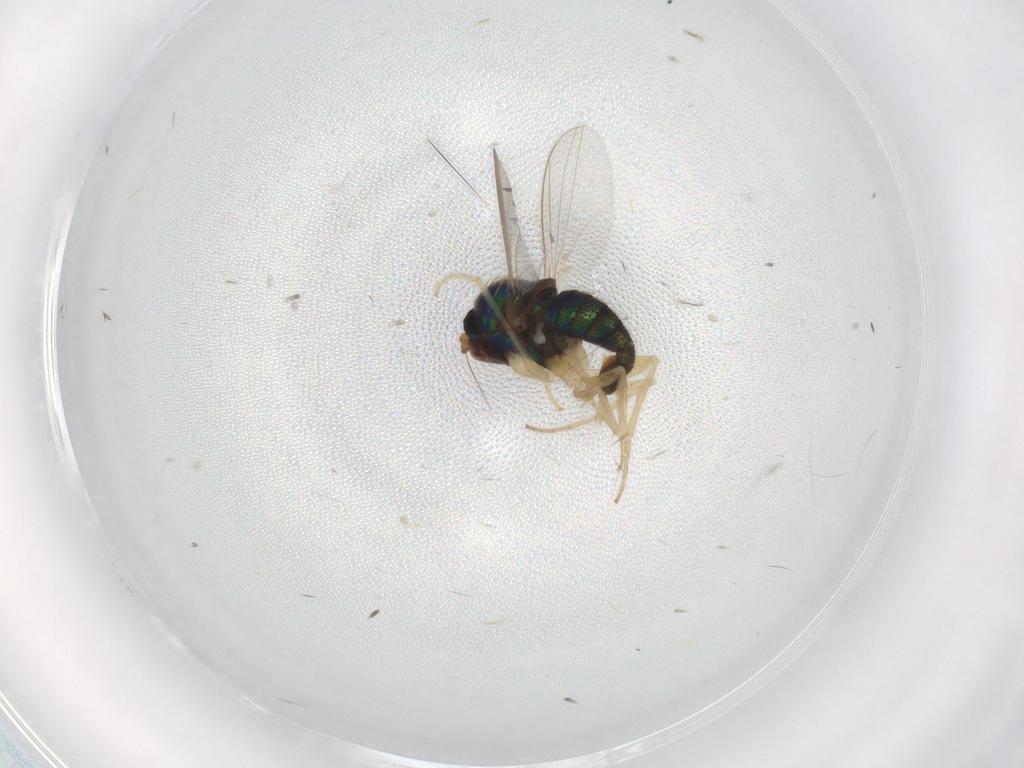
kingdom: Animalia
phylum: Arthropoda
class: Insecta
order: Diptera
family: Dolichopodidae
